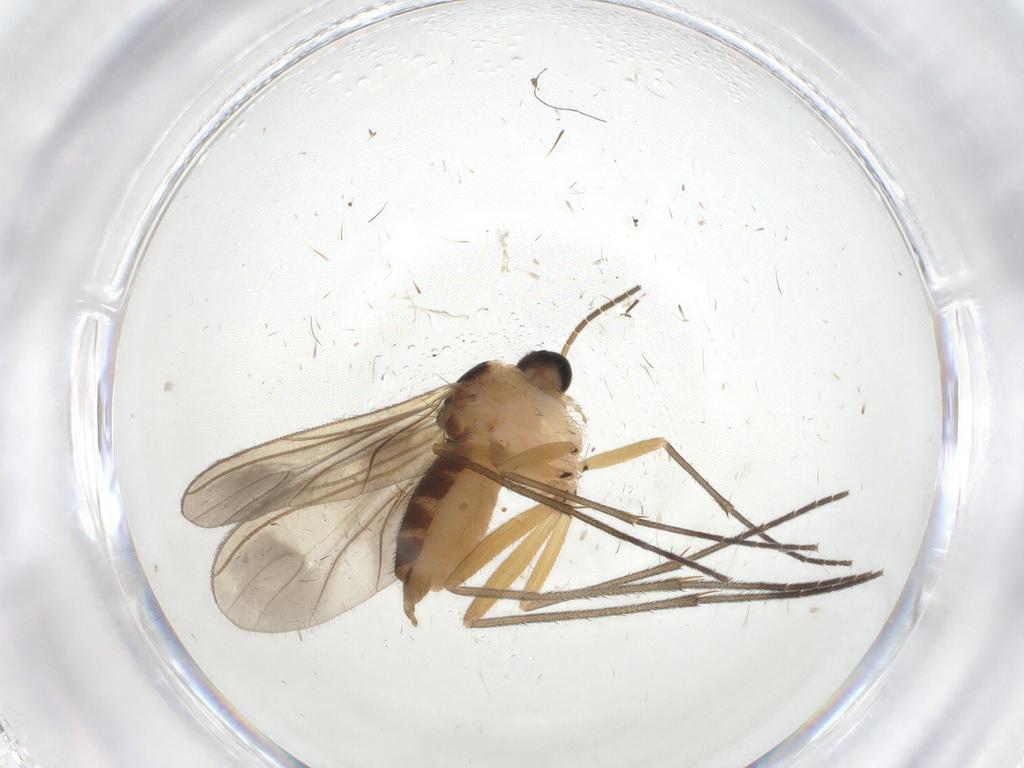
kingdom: Animalia
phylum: Arthropoda
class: Insecta
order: Diptera
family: Sciaridae
